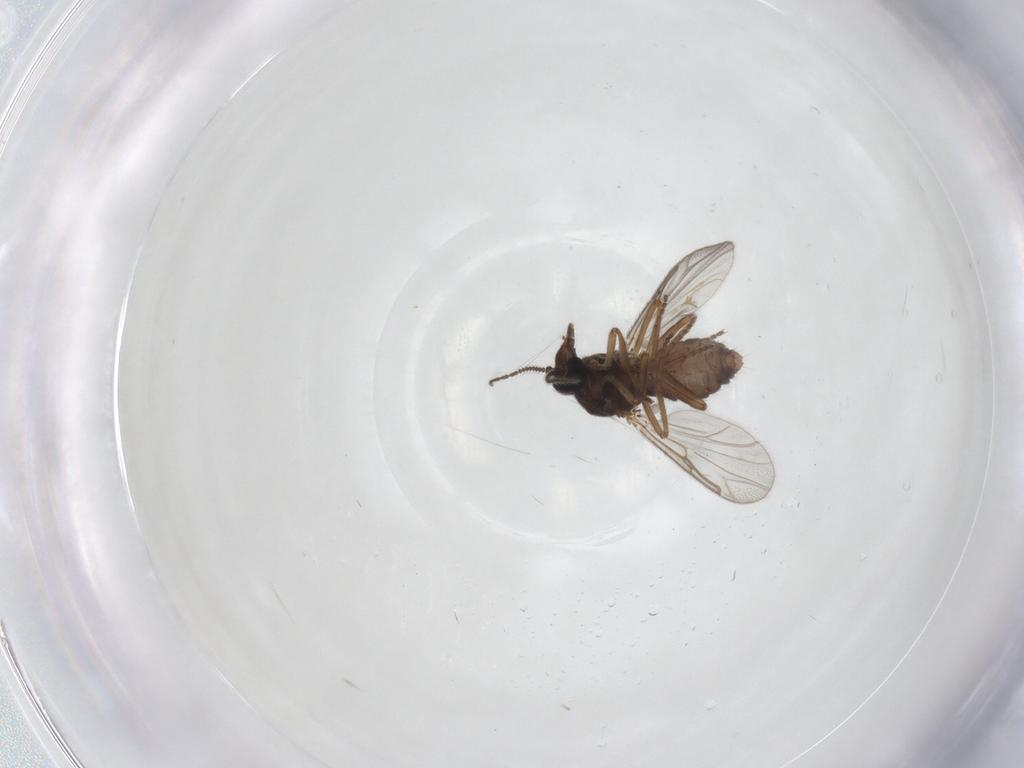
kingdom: Animalia
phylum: Arthropoda
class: Insecta
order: Diptera
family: Ceratopogonidae
